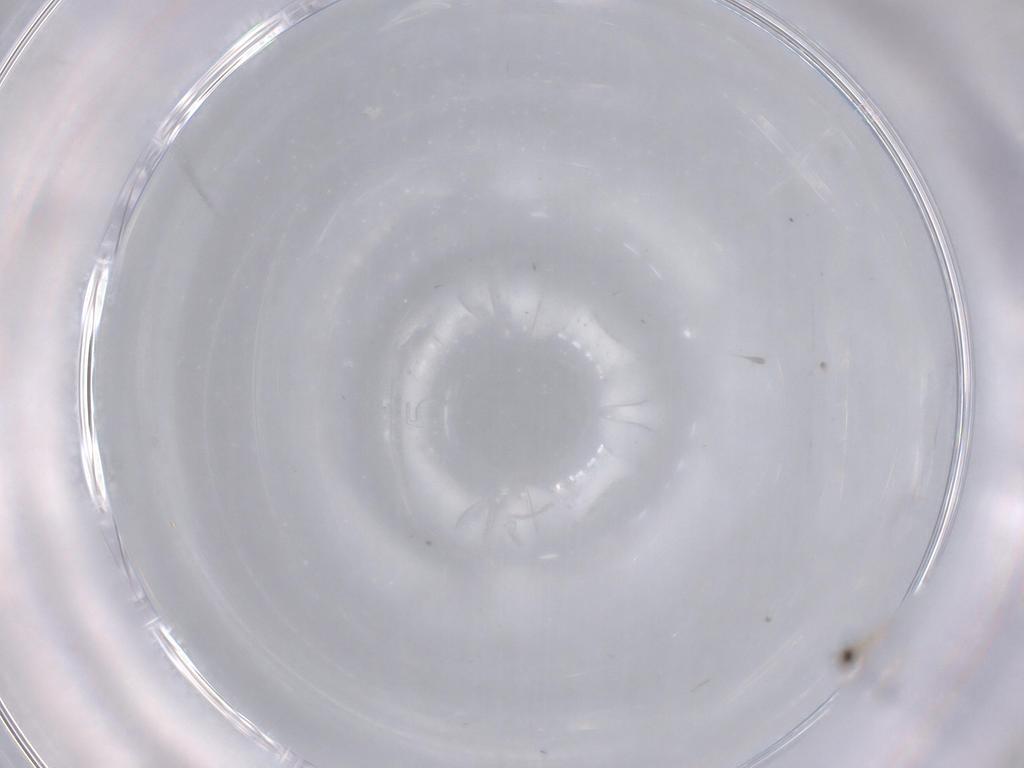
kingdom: Animalia
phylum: Arthropoda
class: Insecta
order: Diptera
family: Cecidomyiidae
